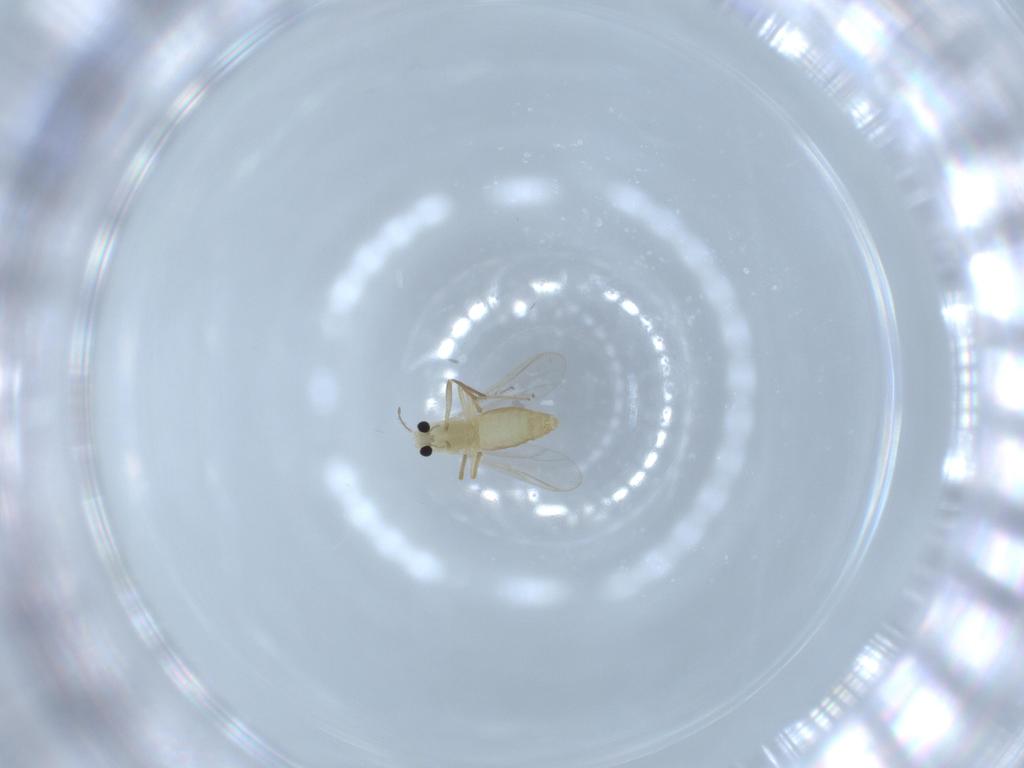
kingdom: Animalia
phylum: Arthropoda
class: Insecta
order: Diptera
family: Chironomidae
